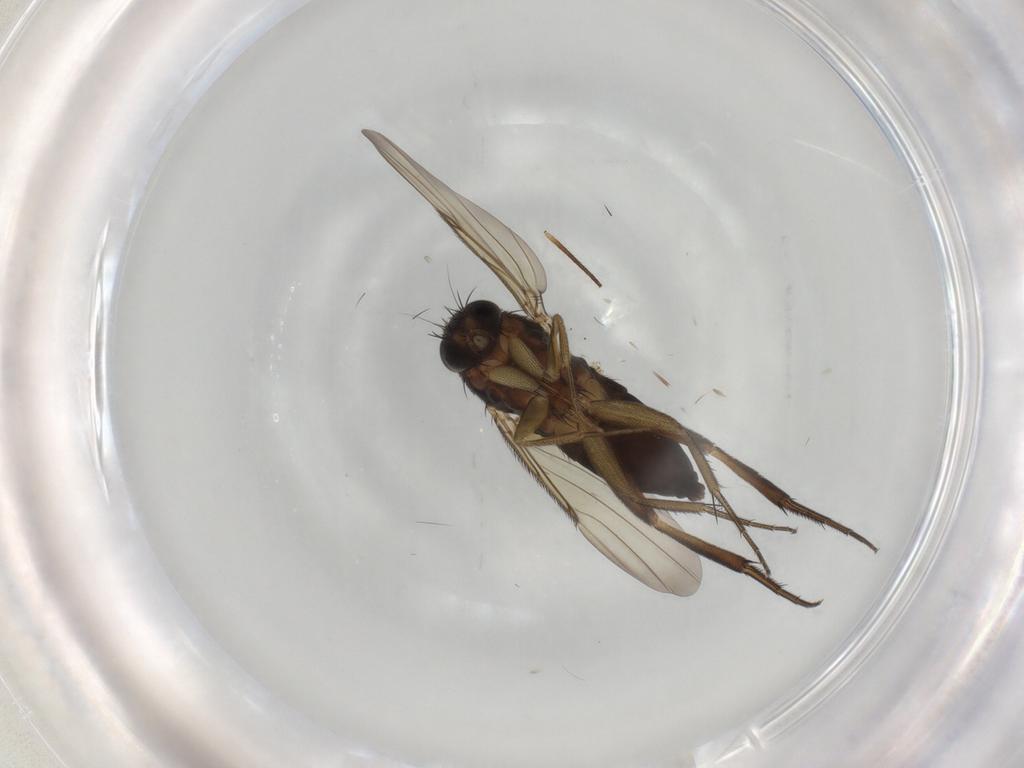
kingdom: Animalia
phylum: Arthropoda
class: Insecta
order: Diptera
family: Phoridae
